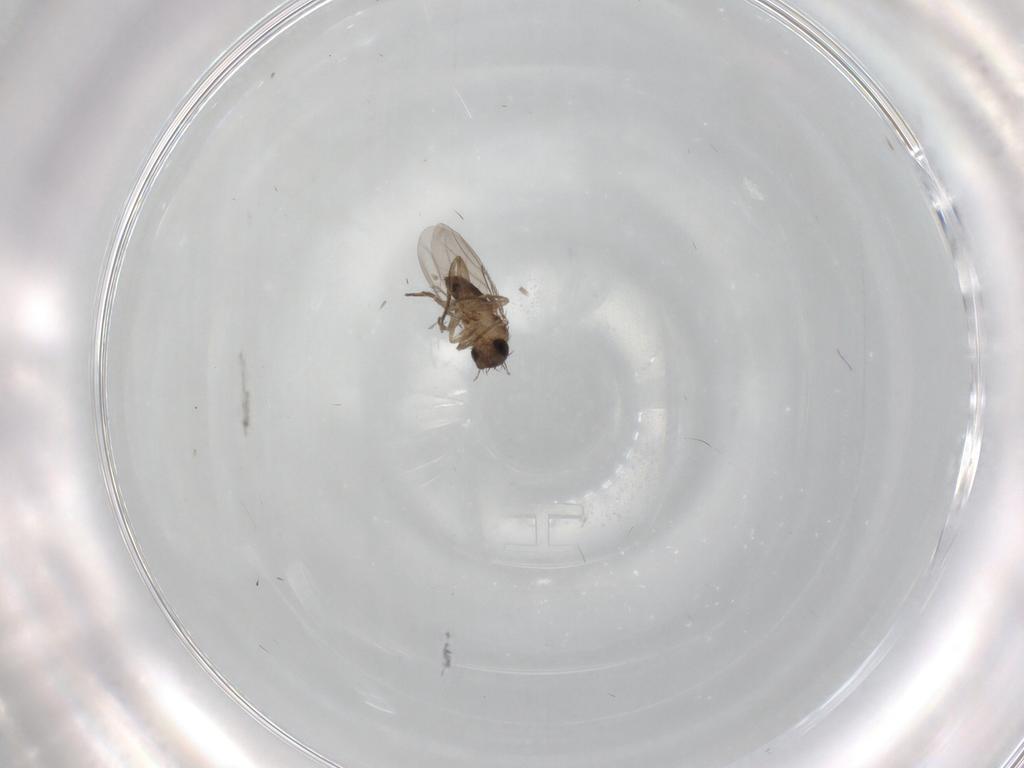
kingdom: Animalia
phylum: Arthropoda
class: Insecta
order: Diptera
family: Phoridae
